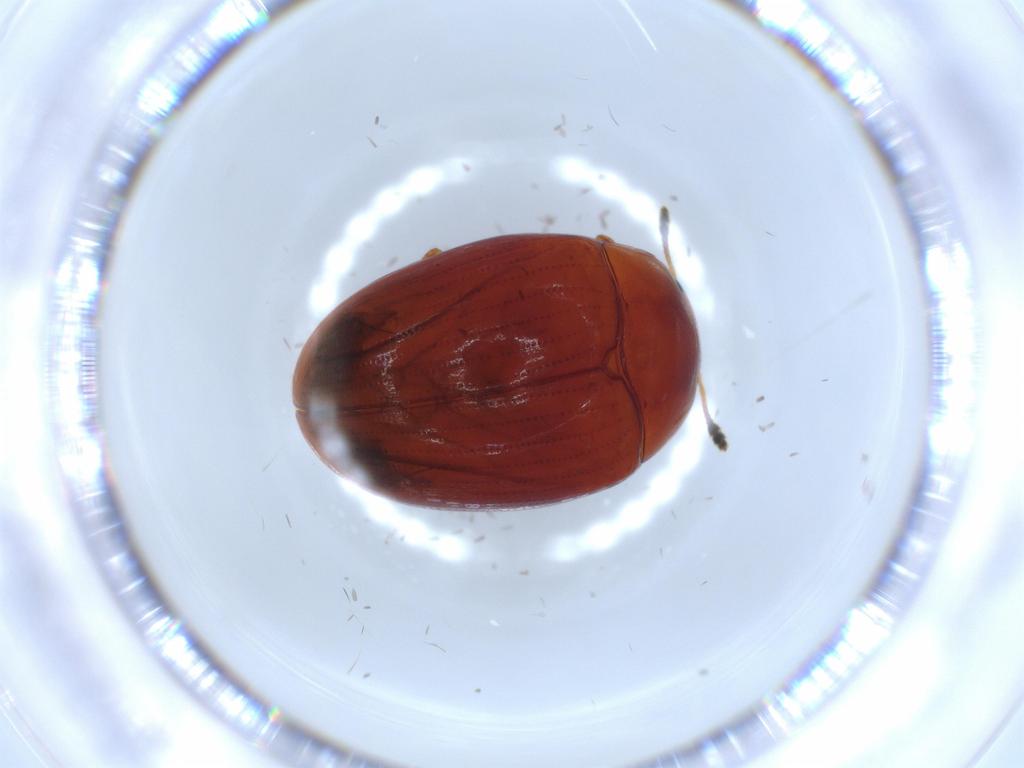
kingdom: Animalia
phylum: Arthropoda
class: Insecta
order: Coleoptera
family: Erotylidae
